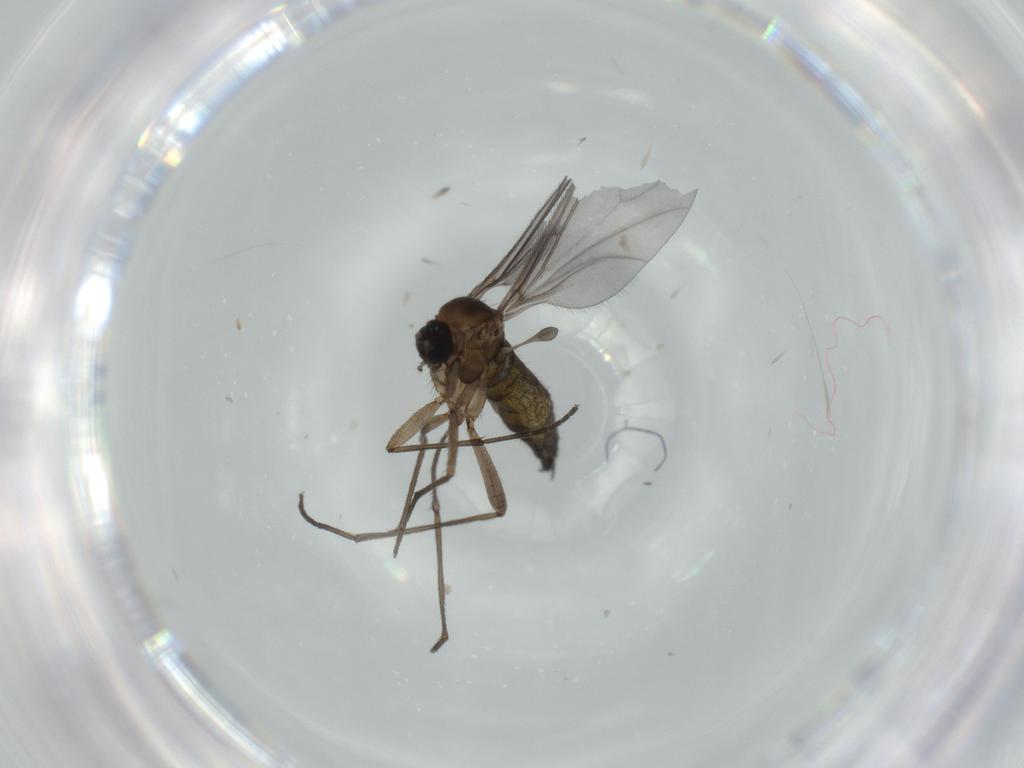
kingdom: Animalia
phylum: Arthropoda
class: Insecta
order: Diptera
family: Sciaridae
